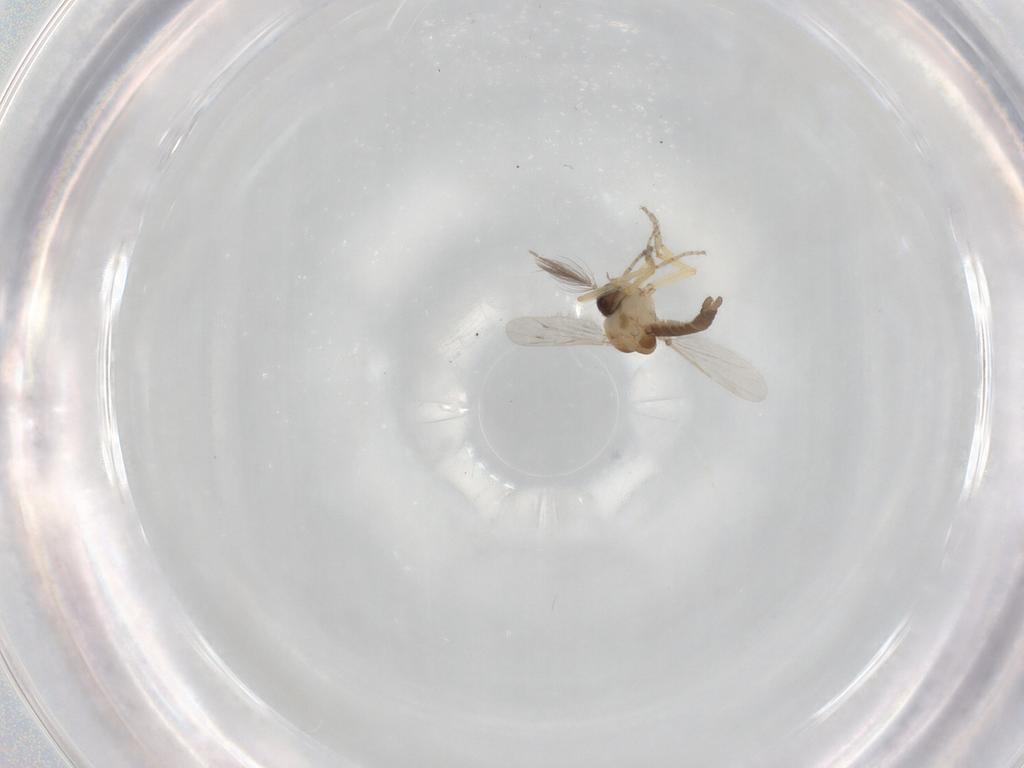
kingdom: Animalia
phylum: Arthropoda
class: Insecta
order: Diptera
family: Ceratopogonidae
